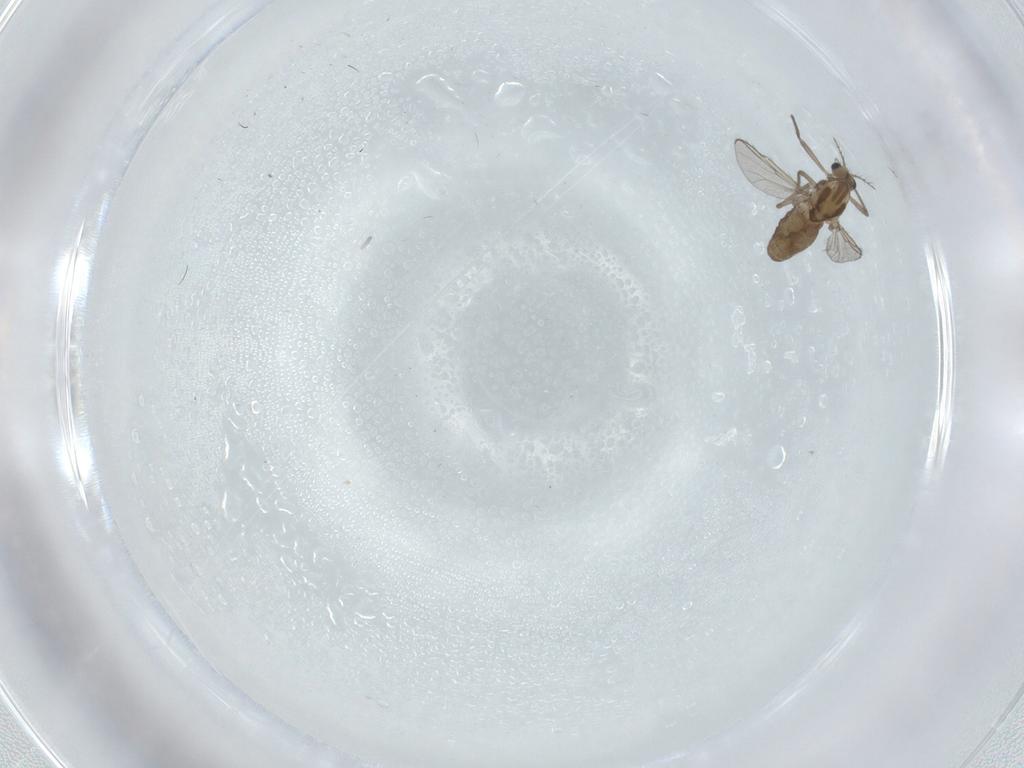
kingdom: Animalia
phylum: Arthropoda
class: Insecta
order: Diptera
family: Chironomidae
